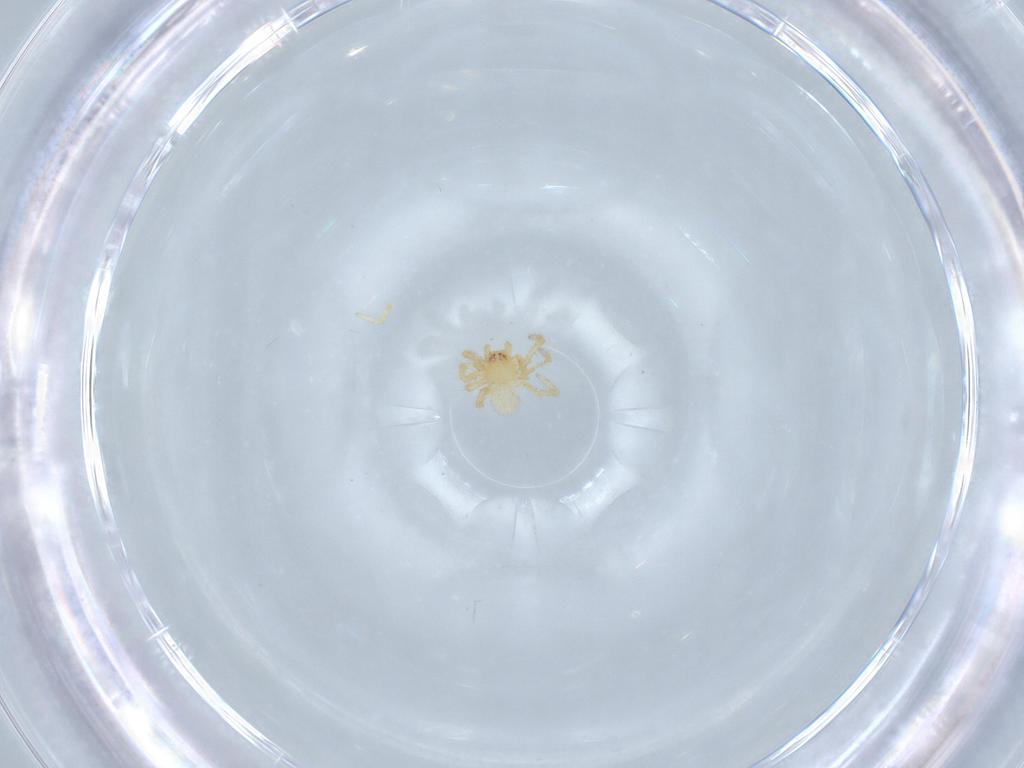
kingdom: Animalia
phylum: Arthropoda
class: Arachnida
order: Araneae
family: Theridiidae
